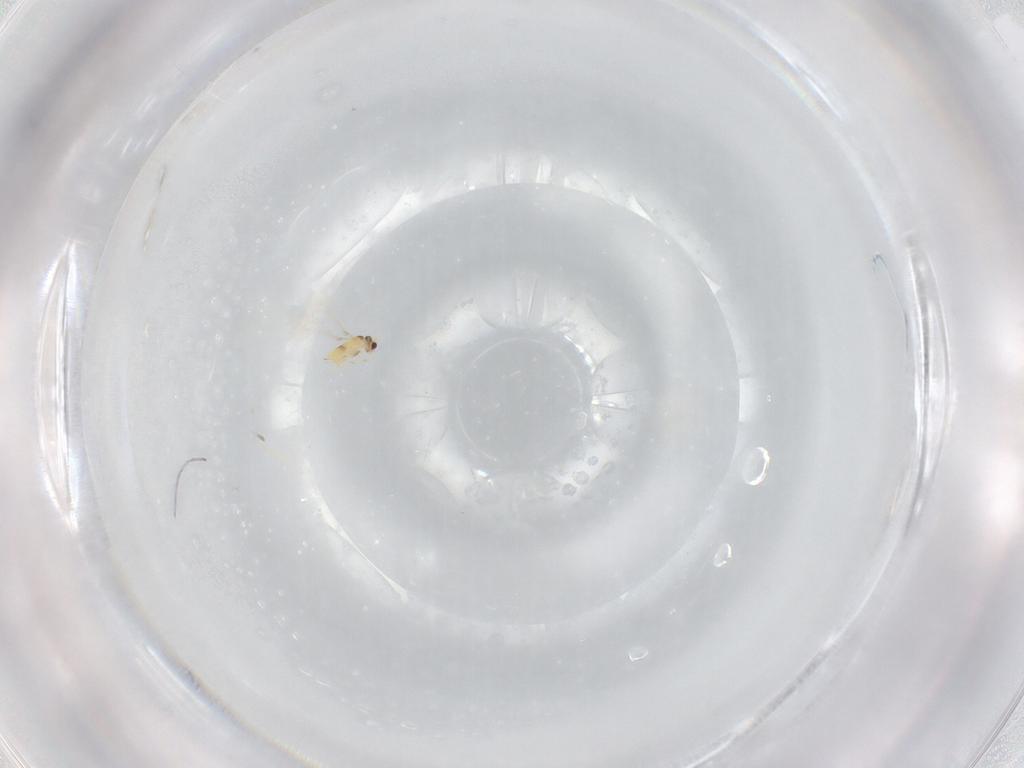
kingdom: Animalia
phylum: Arthropoda
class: Insecta
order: Hymenoptera
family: Mymaridae
